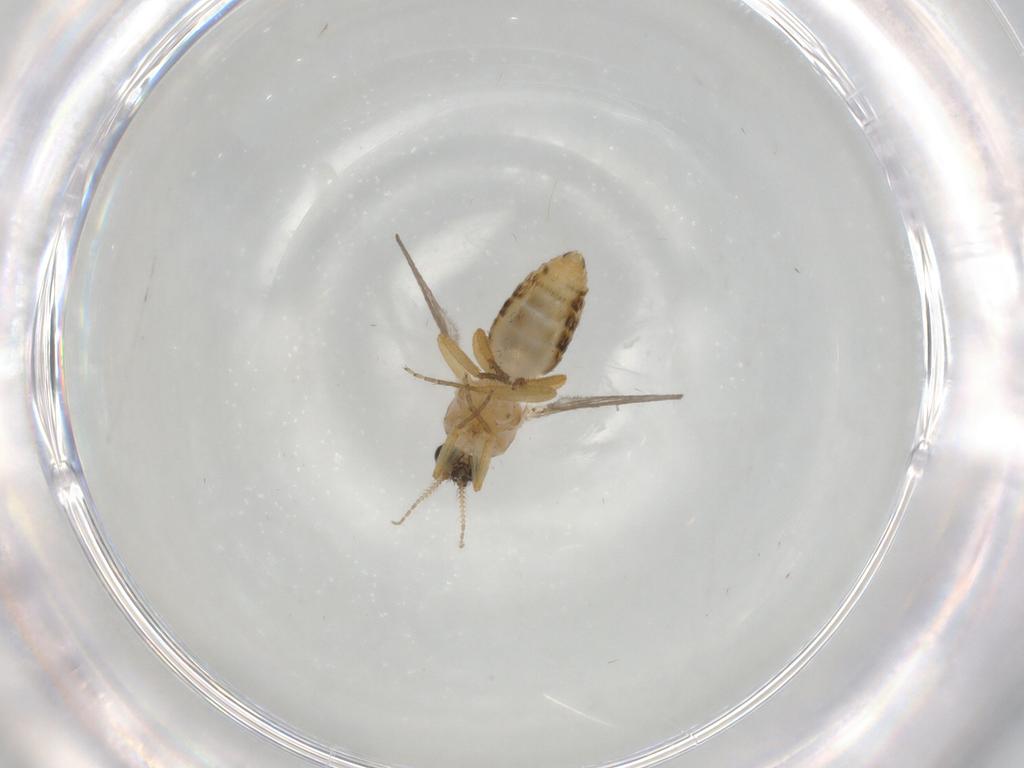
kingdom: Animalia
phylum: Arthropoda
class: Insecta
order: Diptera
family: Ceratopogonidae
